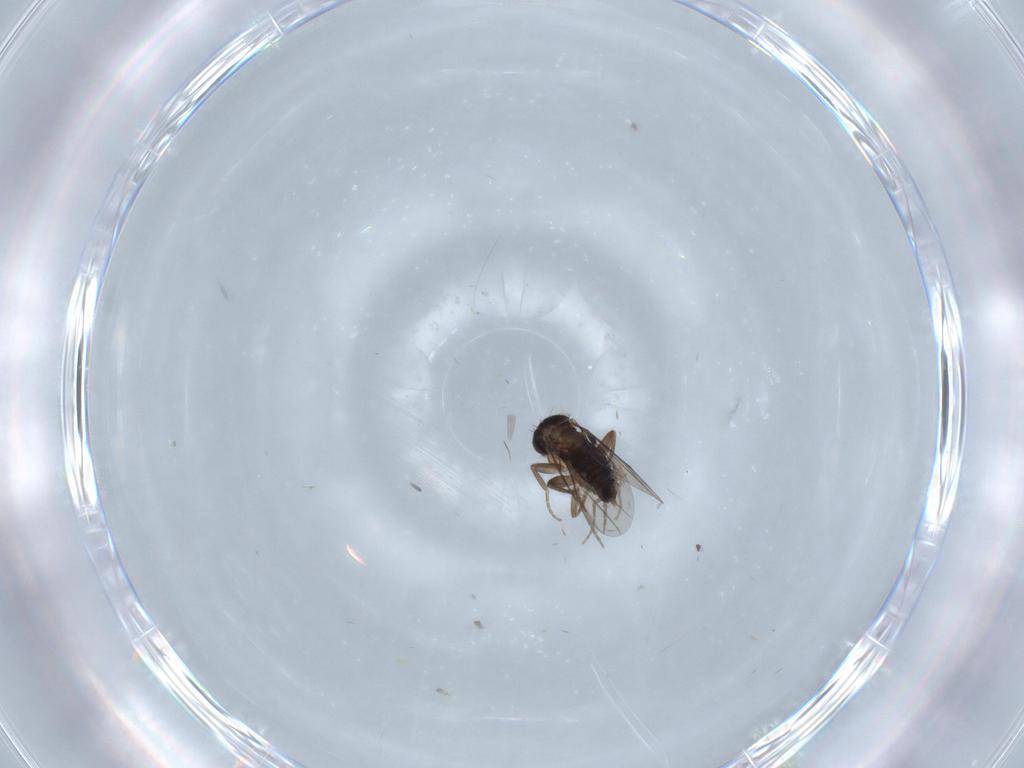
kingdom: Animalia
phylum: Arthropoda
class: Insecta
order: Diptera
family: Phoridae
